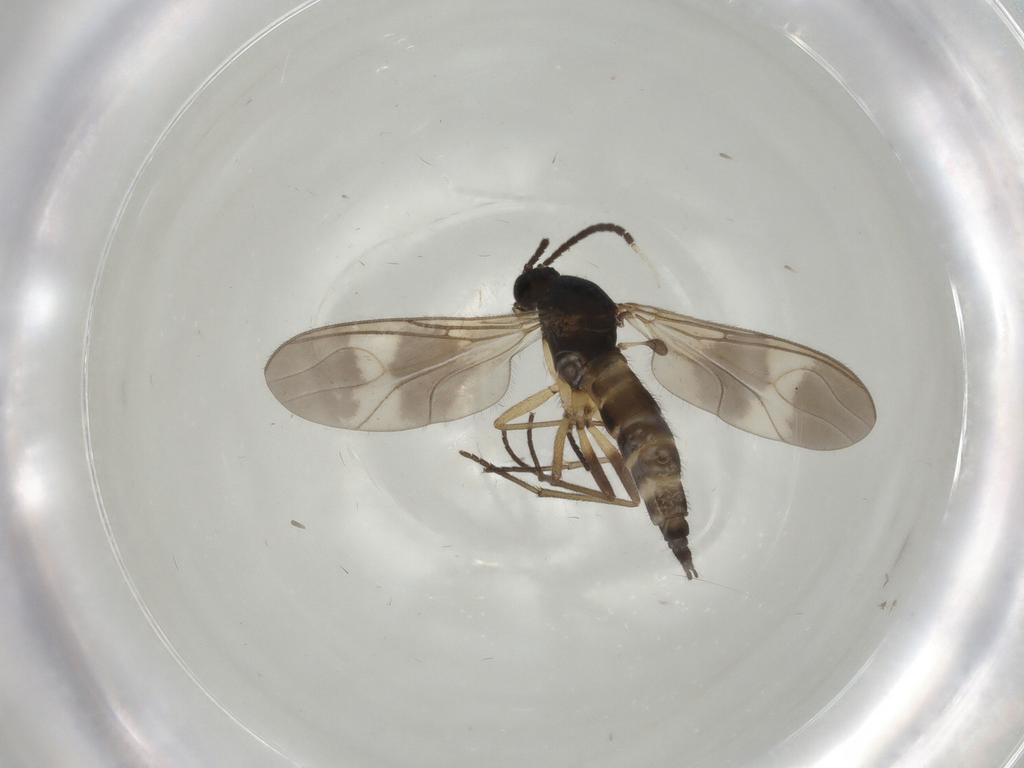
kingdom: Animalia
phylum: Arthropoda
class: Insecta
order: Diptera
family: Sciaridae
